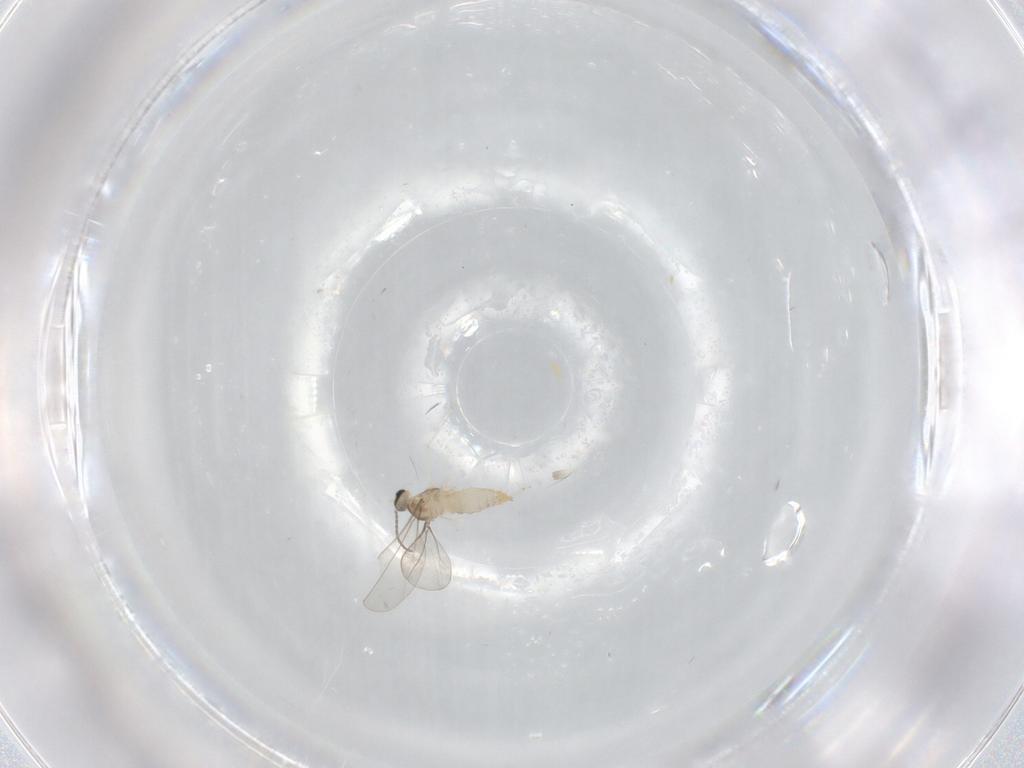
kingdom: Animalia
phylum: Arthropoda
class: Insecta
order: Diptera
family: Cecidomyiidae
